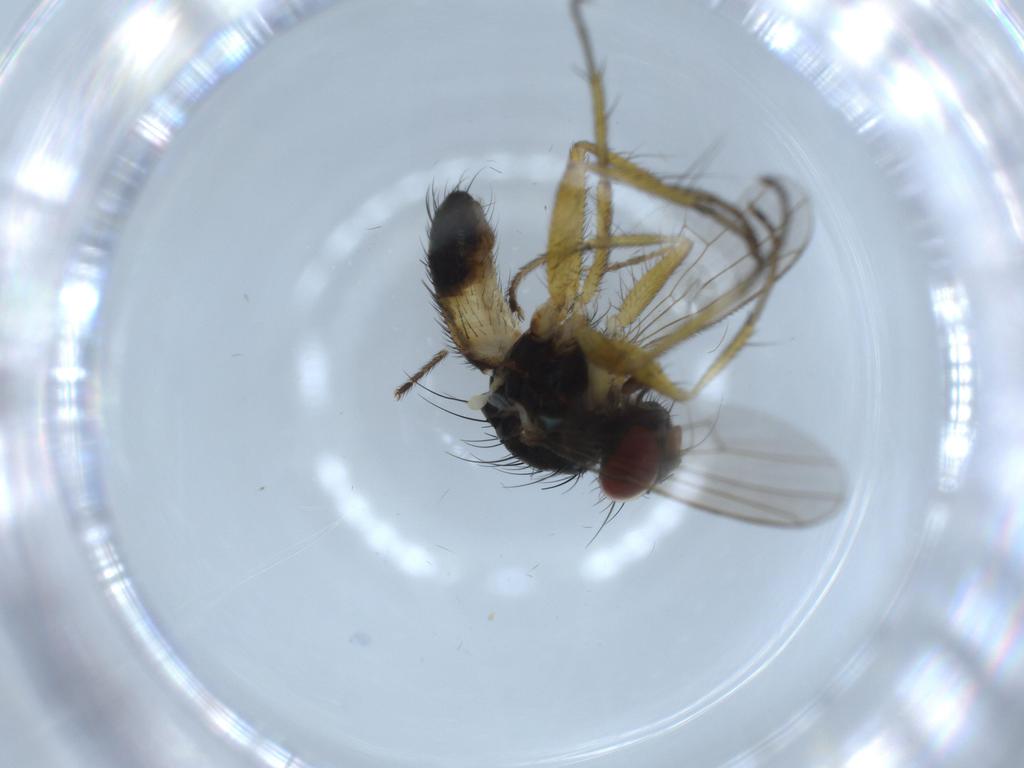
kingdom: Animalia
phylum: Arthropoda
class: Insecta
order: Diptera
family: Muscidae
